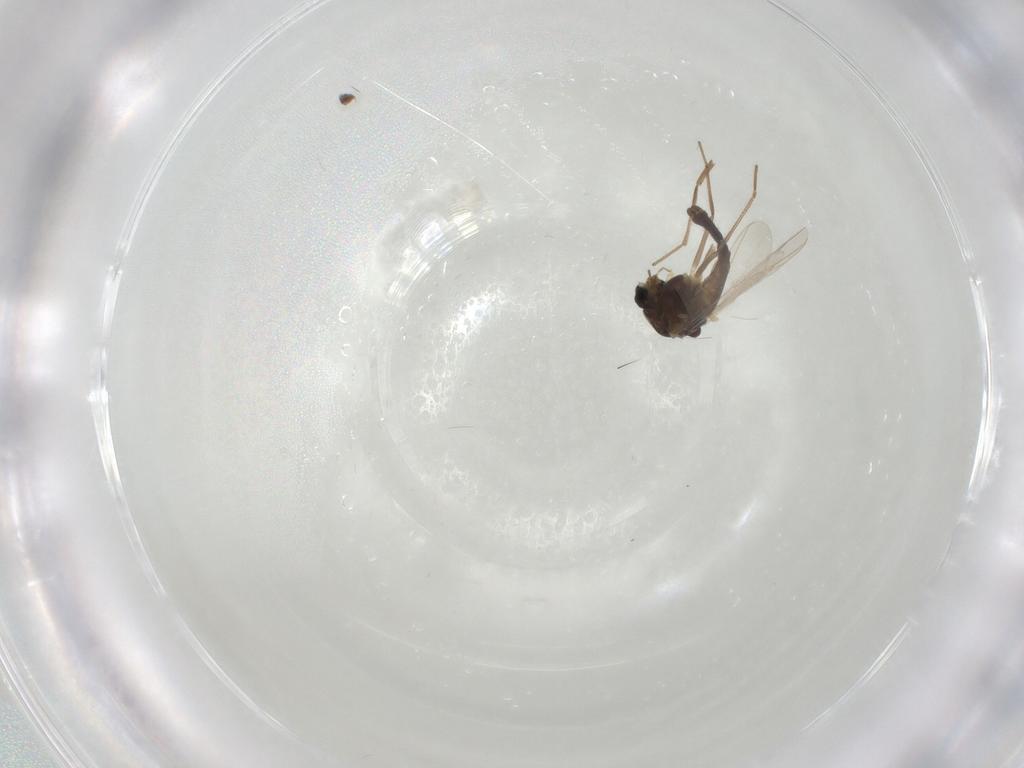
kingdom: Animalia
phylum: Arthropoda
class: Insecta
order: Diptera
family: Chironomidae
